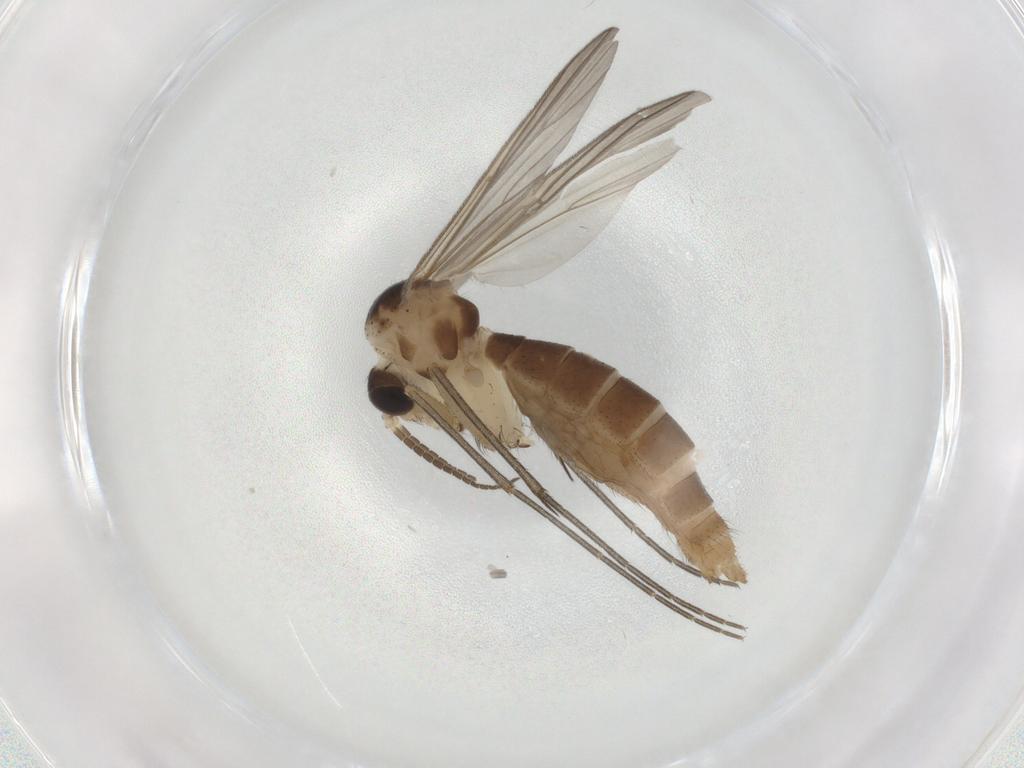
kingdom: Animalia
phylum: Arthropoda
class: Insecta
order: Diptera
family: Mycetophilidae
